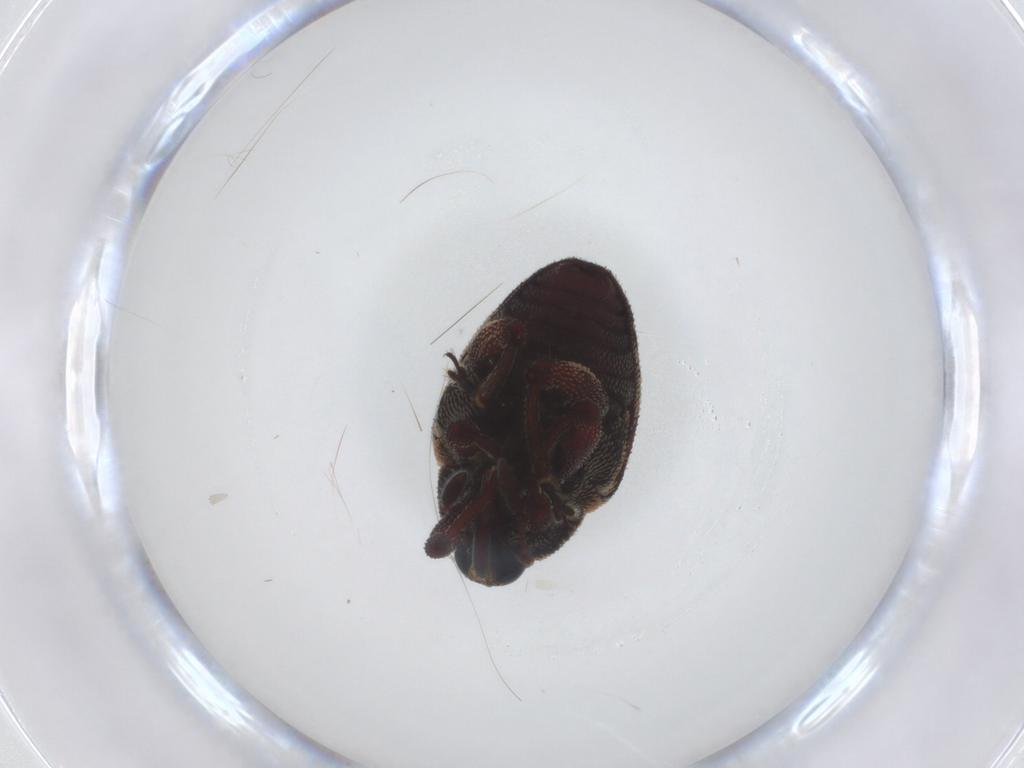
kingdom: Animalia
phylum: Arthropoda
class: Insecta
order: Coleoptera
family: Curculionidae
